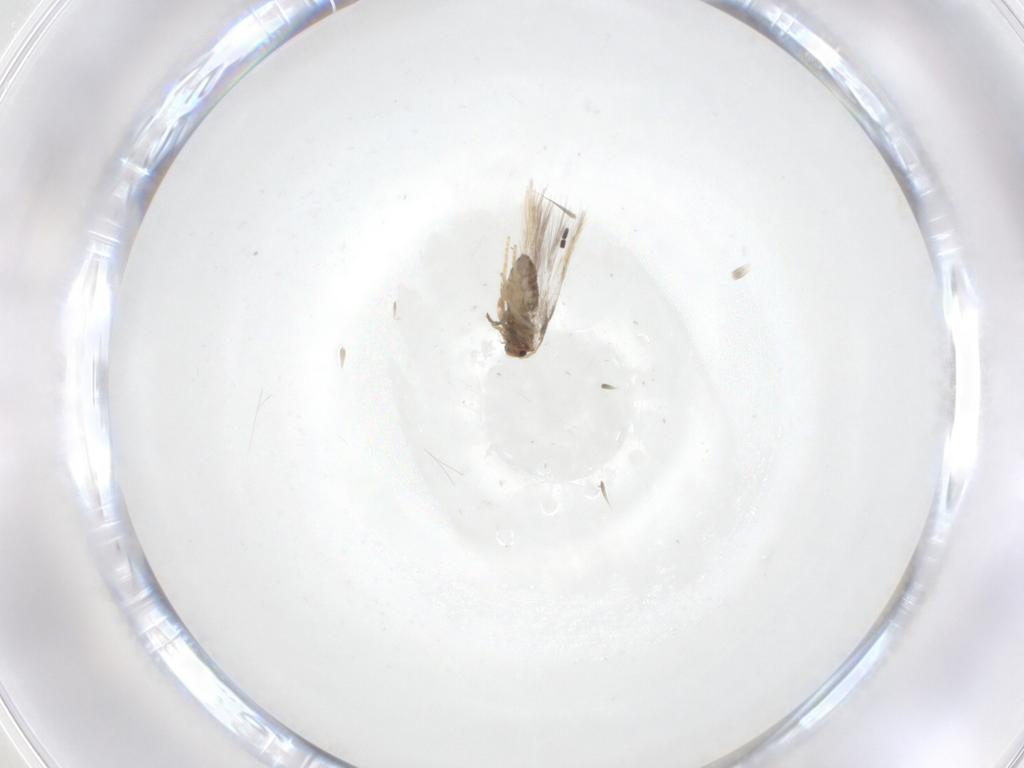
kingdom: Animalia
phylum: Arthropoda
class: Insecta
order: Lepidoptera
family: Nepticulidae
